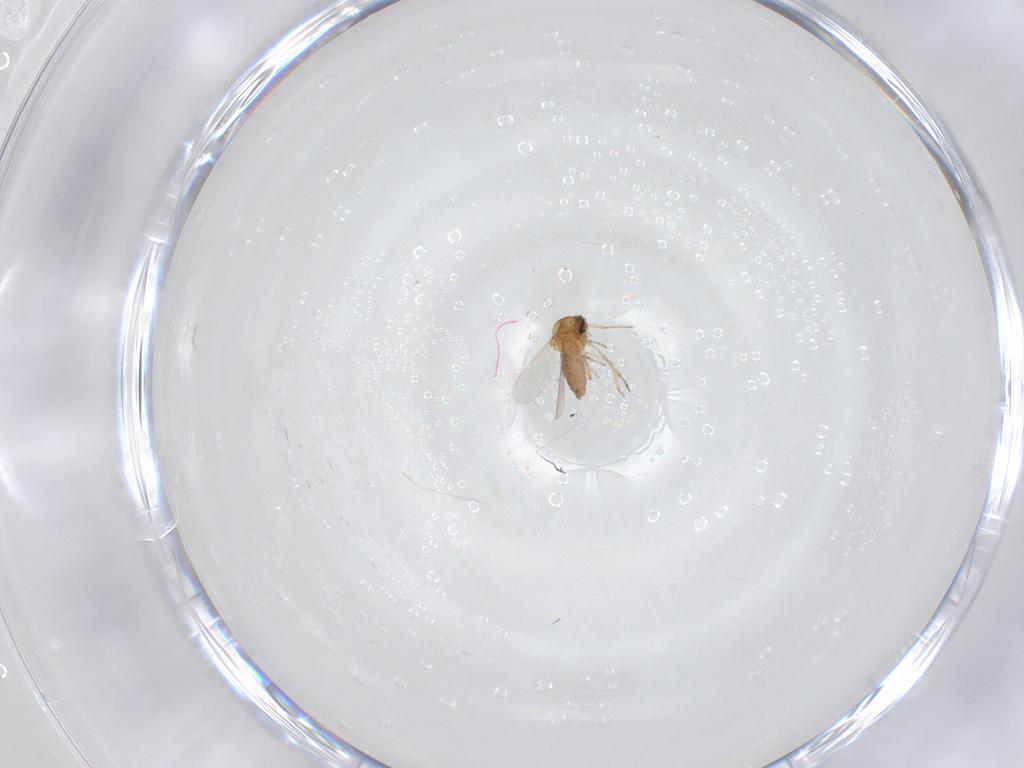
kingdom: Animalia
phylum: Arthropoda
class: Insecta
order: Diptera
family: Ceratopogonidae
